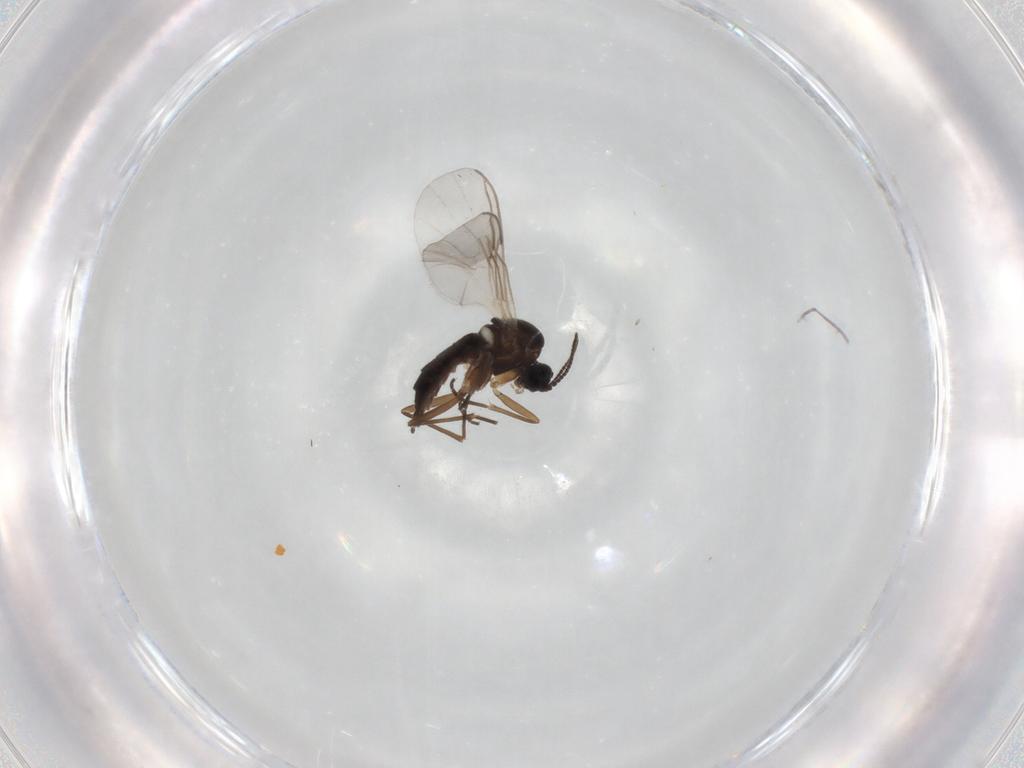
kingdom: Animalia
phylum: Arthropoda
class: Insecta
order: Diptera
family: Sciaridae
